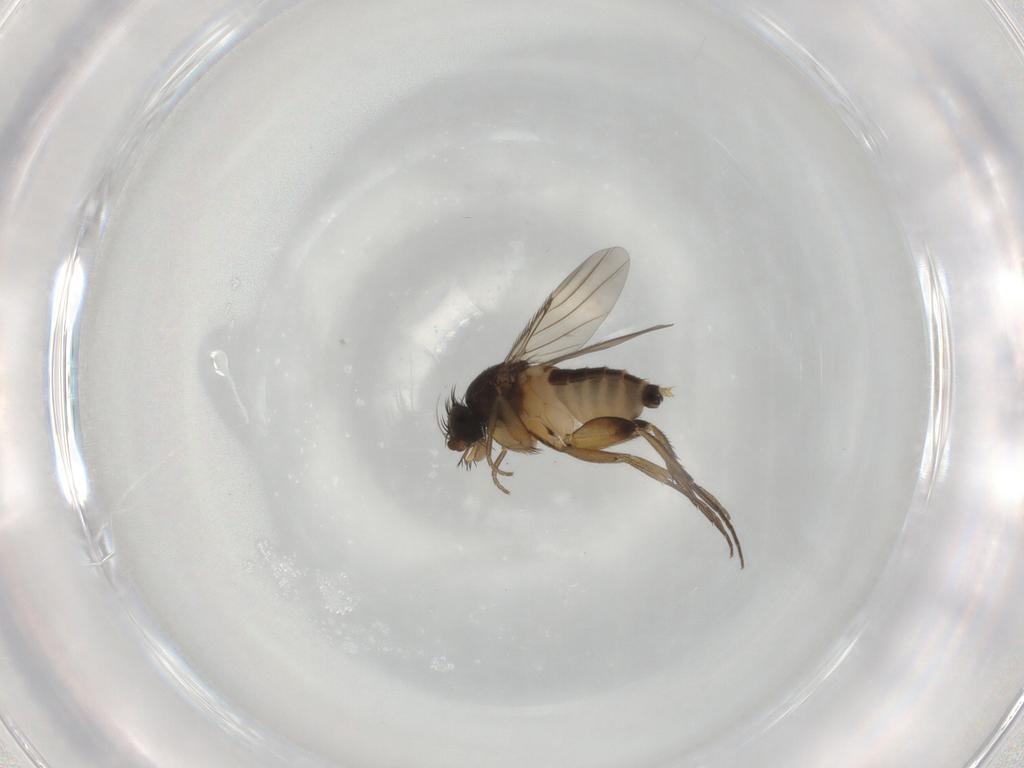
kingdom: Animalia
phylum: Arthropoda
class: Insecta
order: Diptera
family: Phoridae
